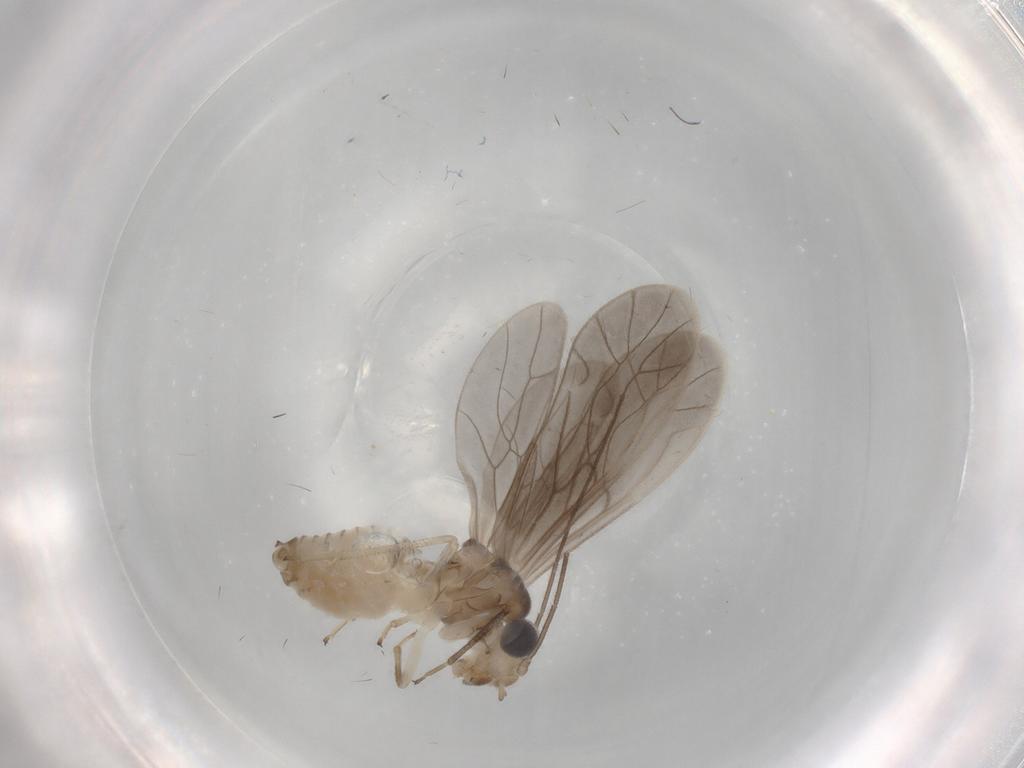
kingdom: Animalia
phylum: Arthropoda
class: Insecta
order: Psocodea
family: Caeciliusidae
